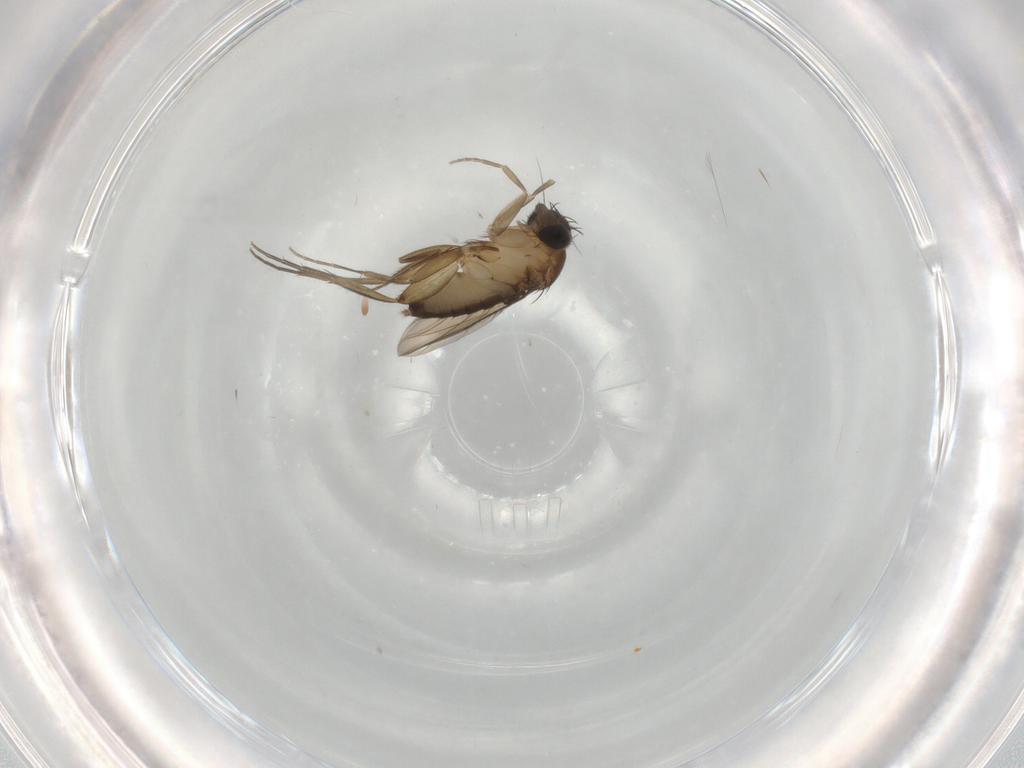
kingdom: Animalia
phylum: Arthropoda
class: Insecta
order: Diptera
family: Phoridae
